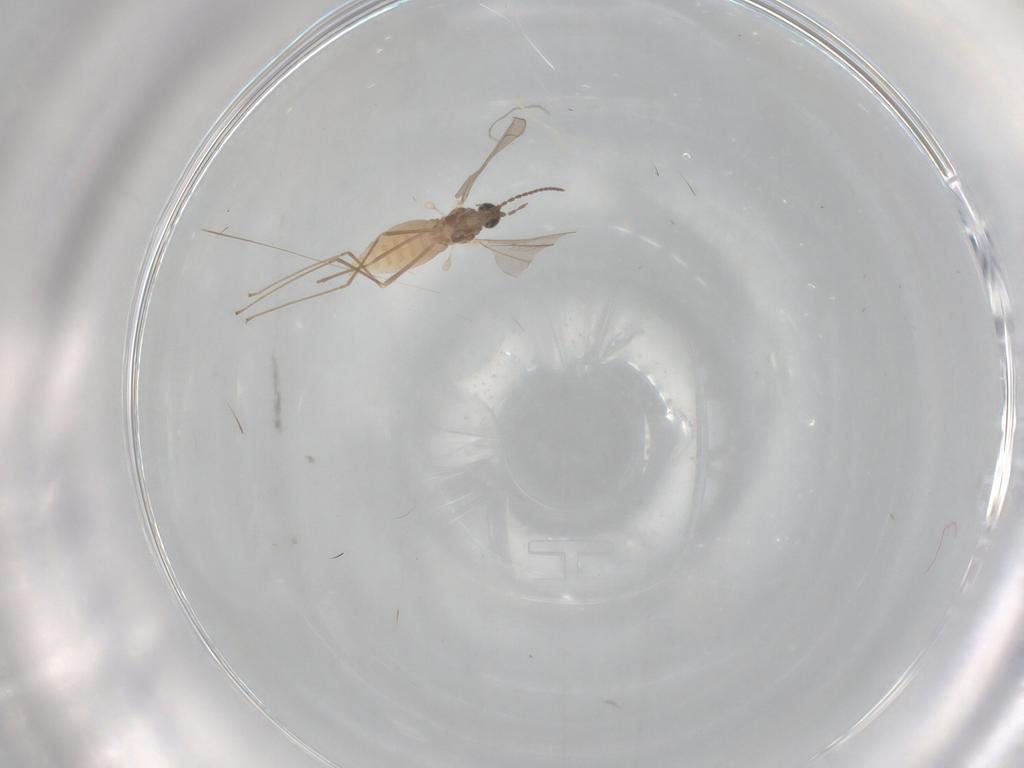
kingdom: Animalia
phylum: Arthropoda
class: Insecta
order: Diptera
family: Cecidomyiidae
